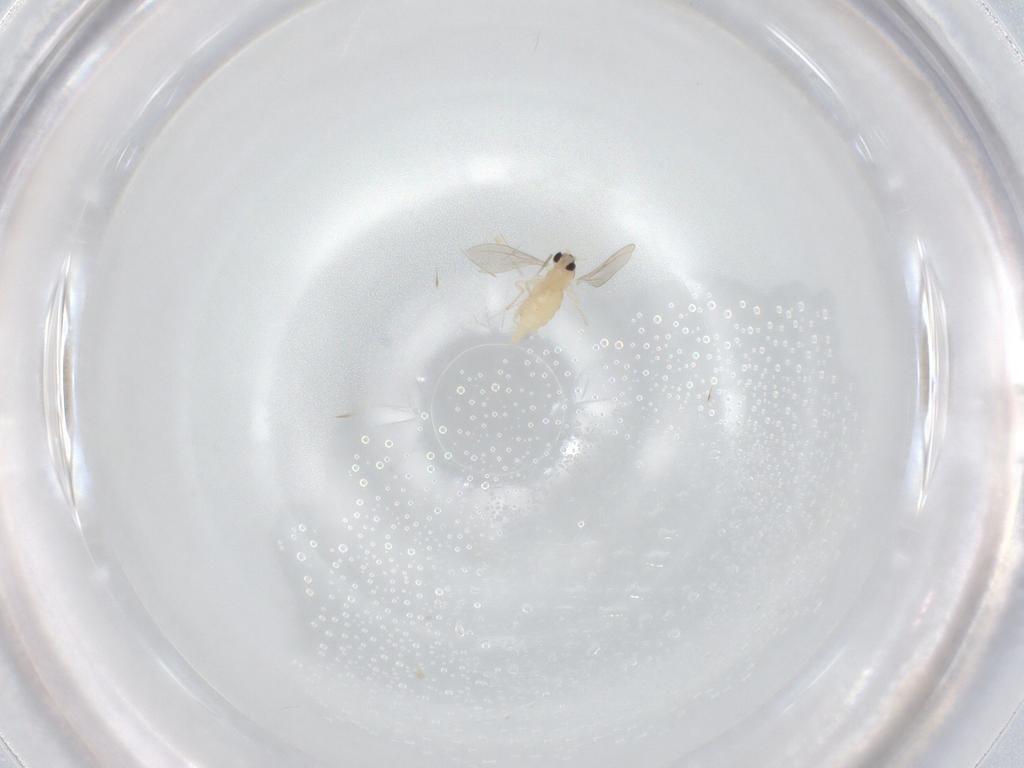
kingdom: Animalia
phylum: Arthropoda
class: Insecta
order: Diptera
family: Cecidomyiidae
